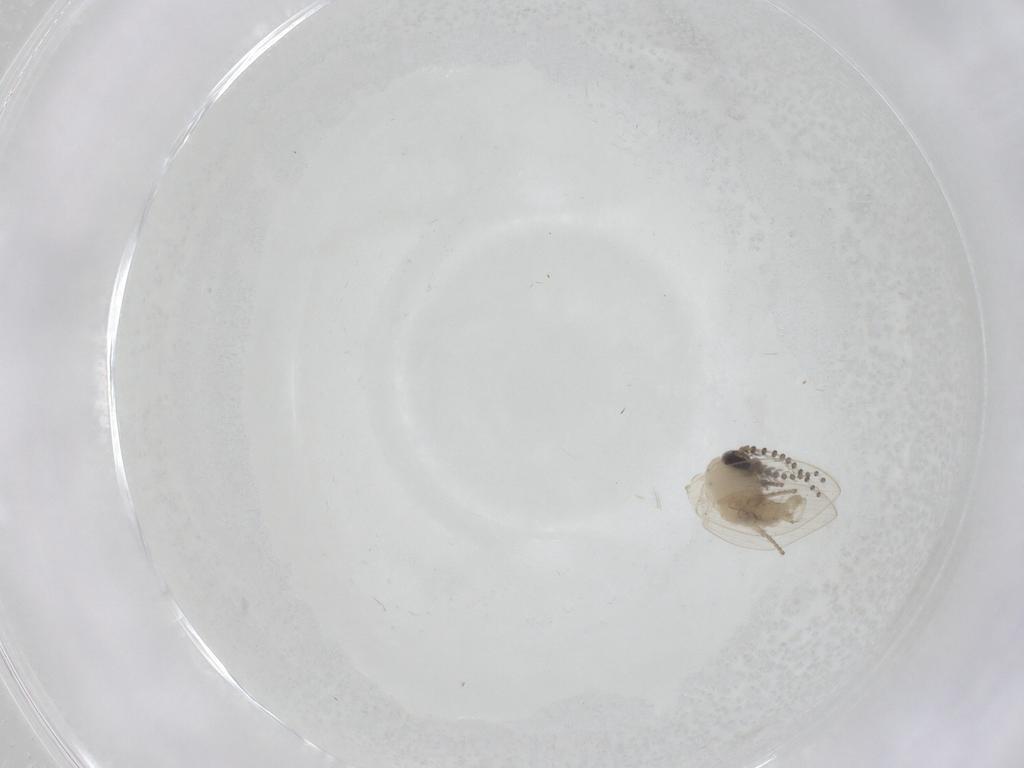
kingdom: Animalia
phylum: Arthropoda
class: Insecta
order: Diptera
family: Psychodidae
